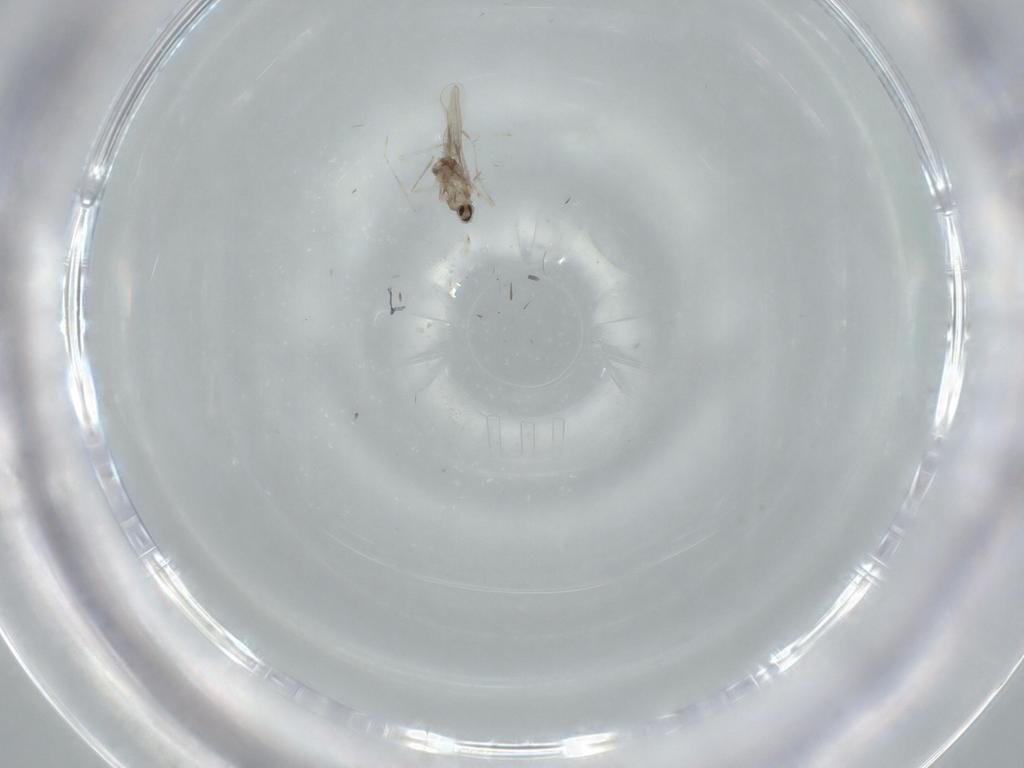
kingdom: Animalia
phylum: Arthropoda
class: Insecta
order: Diptera
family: Cecidomyiidae
